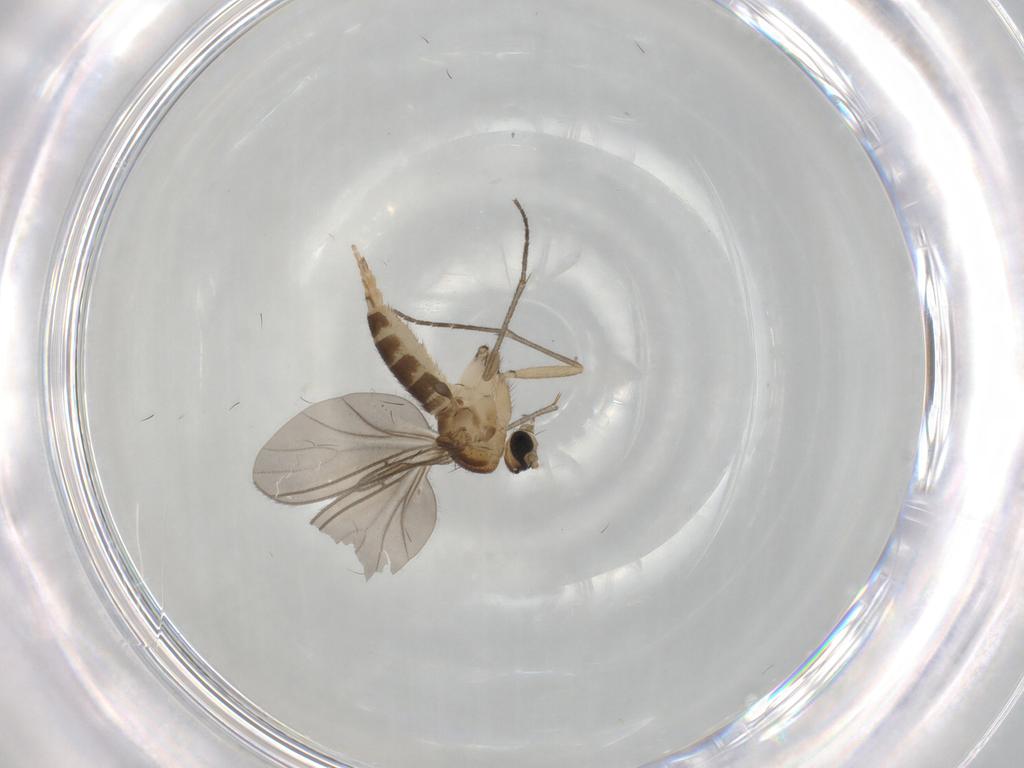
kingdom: Animalia
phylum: Arthropoda
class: Insecta
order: Diptera
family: Sciaridae
